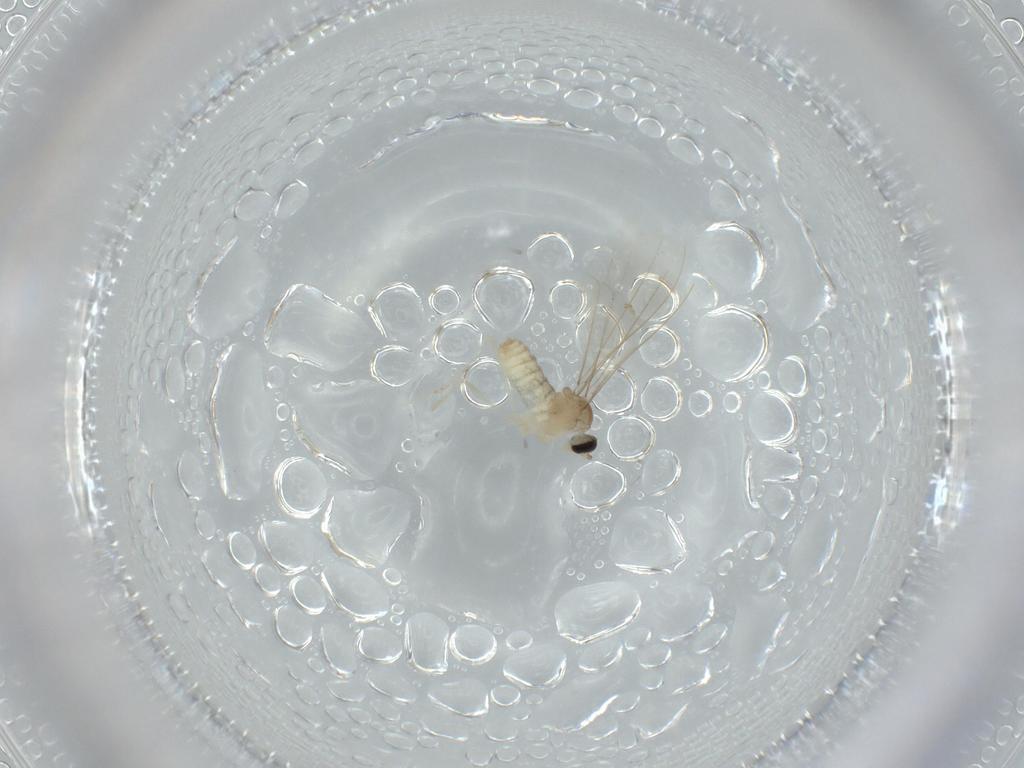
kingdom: Animalia
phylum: Arthropoda
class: Insecta
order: Diptera
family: Cecidomyiidae
